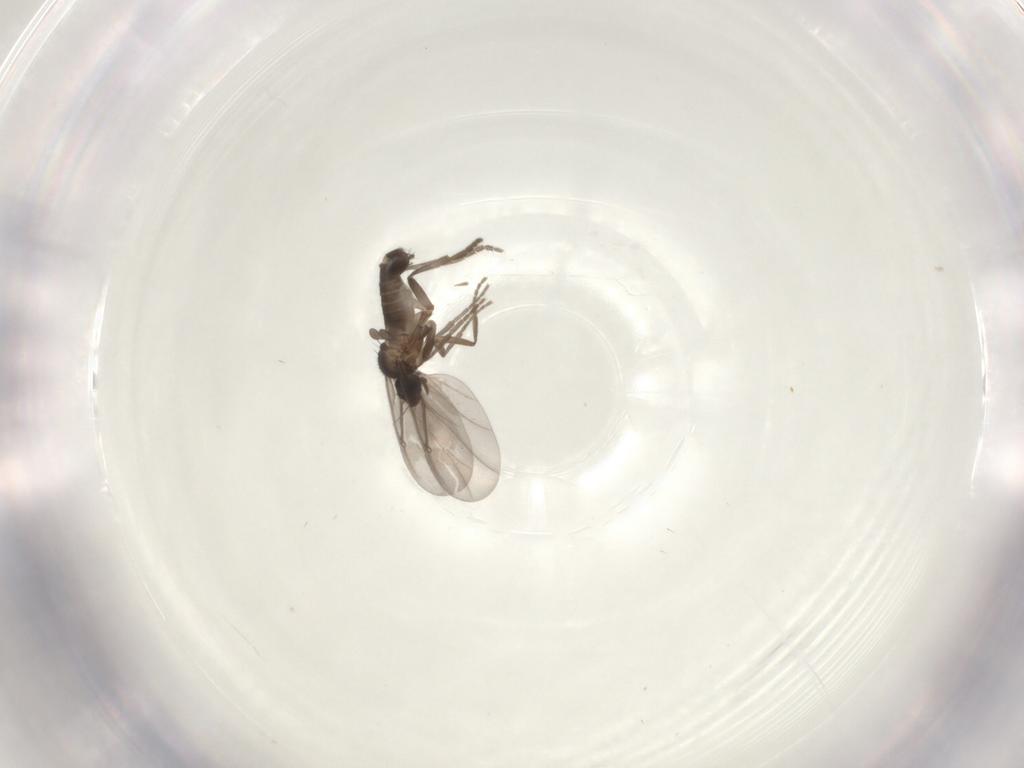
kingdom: Animalia
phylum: Arthropoda
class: Insecta
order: Diptera
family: Phoridae
